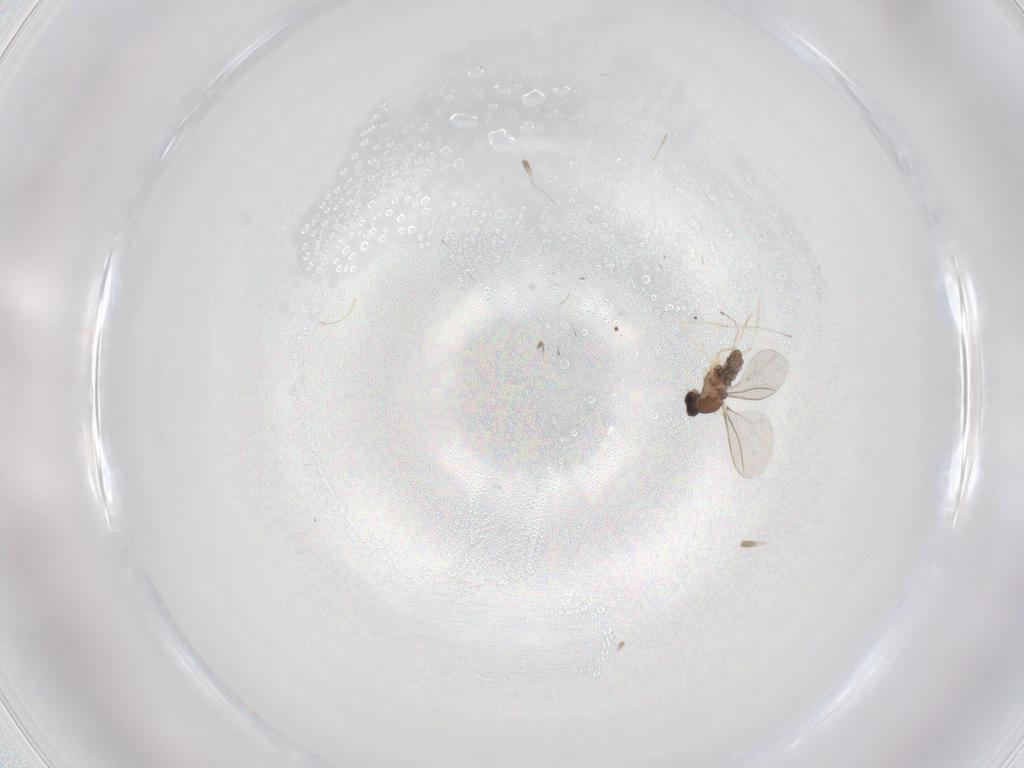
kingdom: Animalia
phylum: Arthropoda
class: Insecta
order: Diptera
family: Cecidomyiidae
